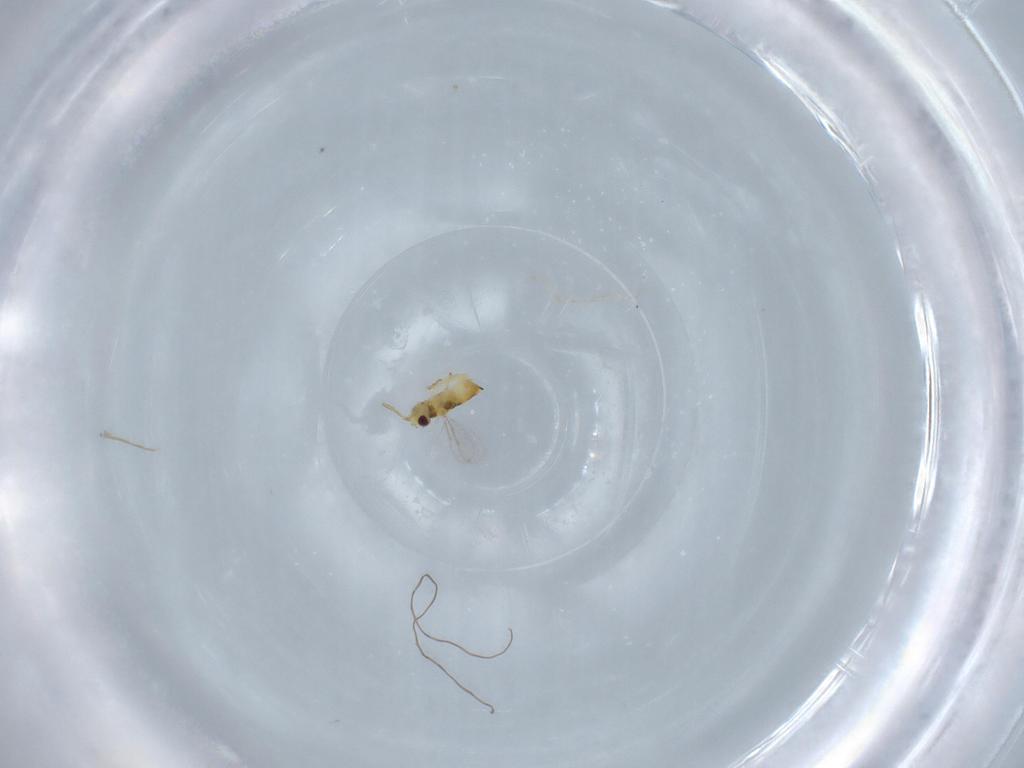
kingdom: Animalia
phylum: Arthropoda
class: Insecta
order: Hymenoptera
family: Aphelinidae
